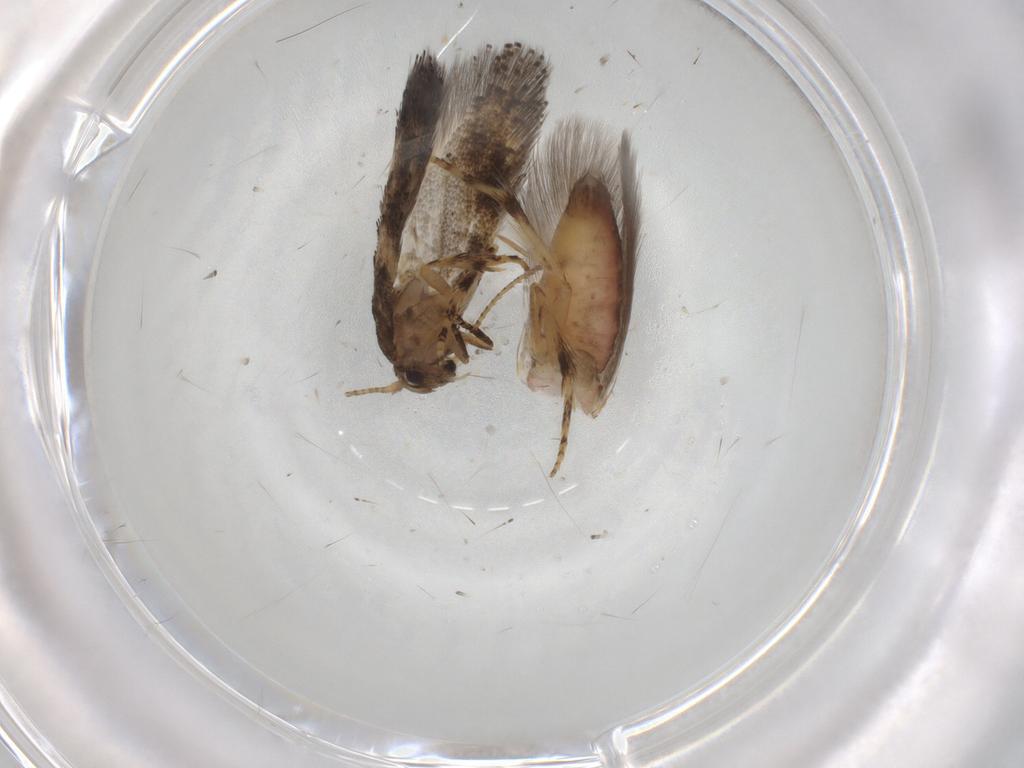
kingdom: Animalia
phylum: Arthropoda
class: Insecta
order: Lepidoptera
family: Elachistidae
